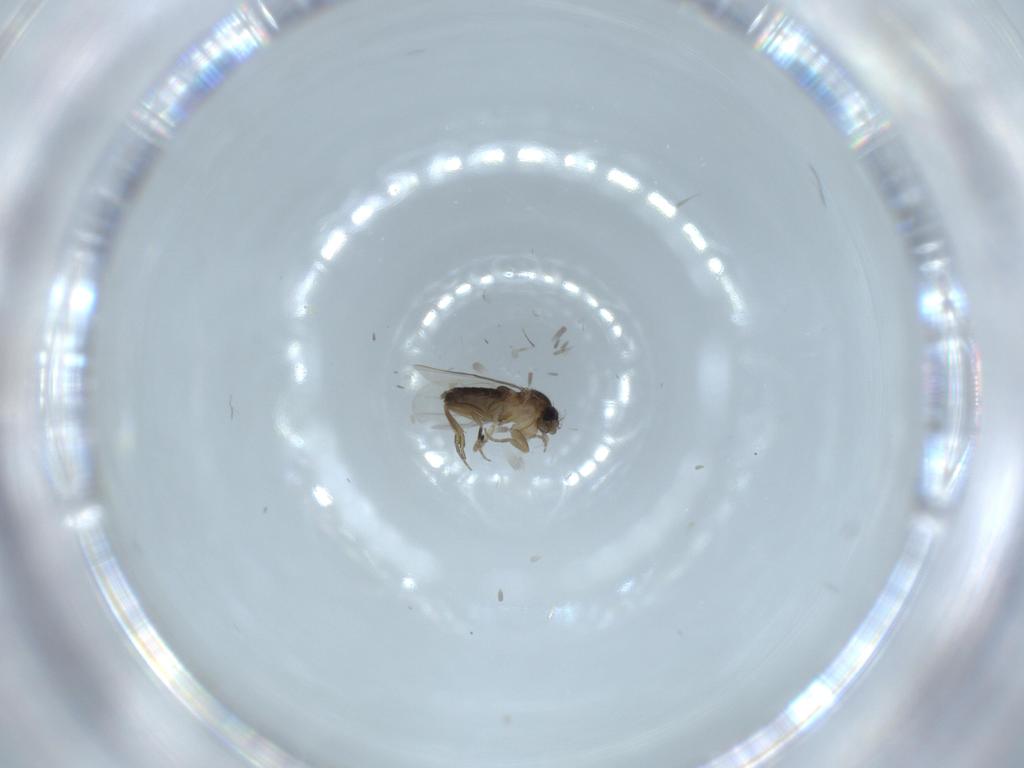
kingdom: Animalia
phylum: Arthropoda
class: Insecta
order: Diptera
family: Phoridae
